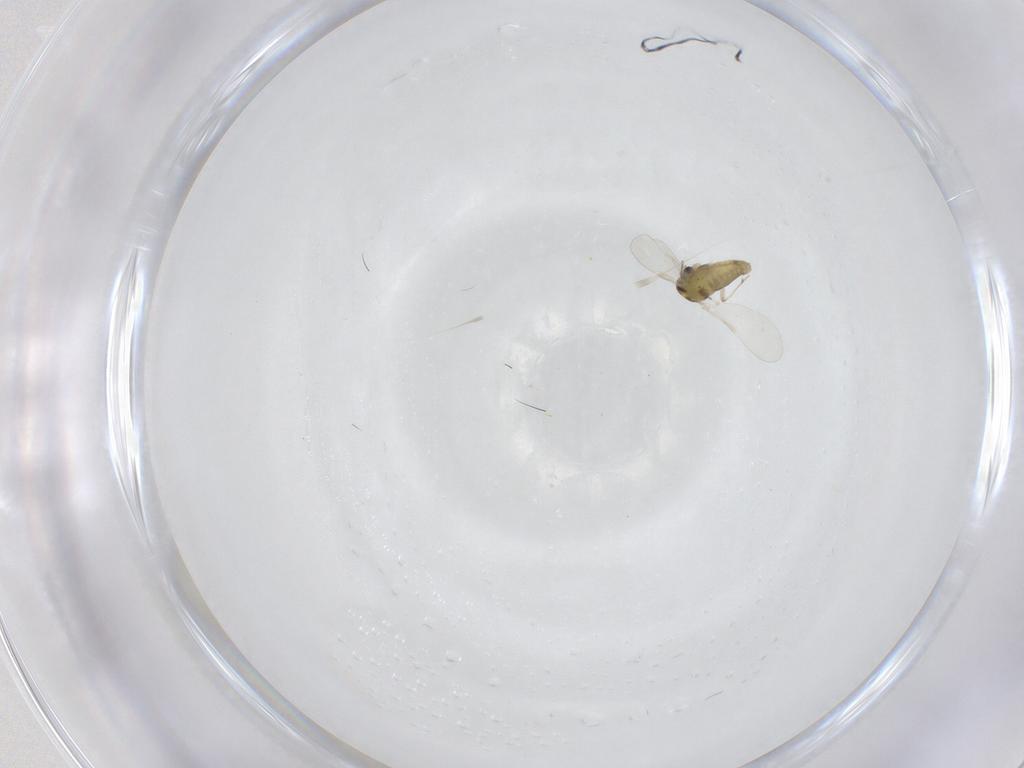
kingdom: Animalia
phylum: Arthropoda
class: Insecta
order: Diptera
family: Chironomidae
